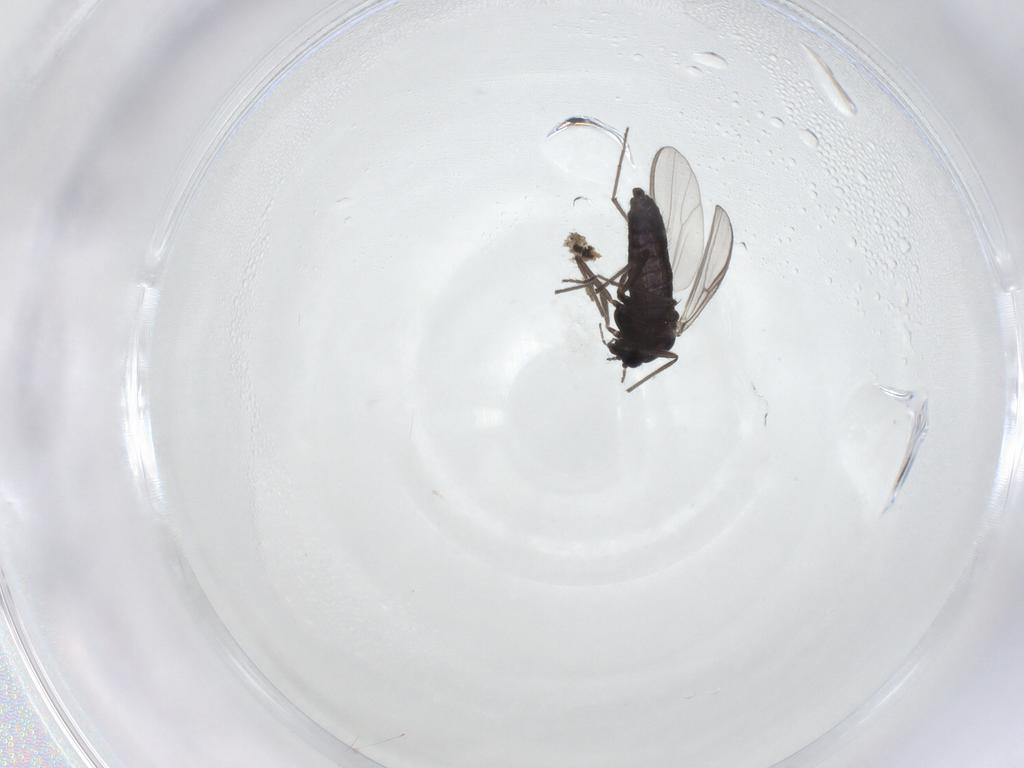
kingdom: Animalia
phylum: Arthropoda
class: Insecta
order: Diptera
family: Chironomidae
